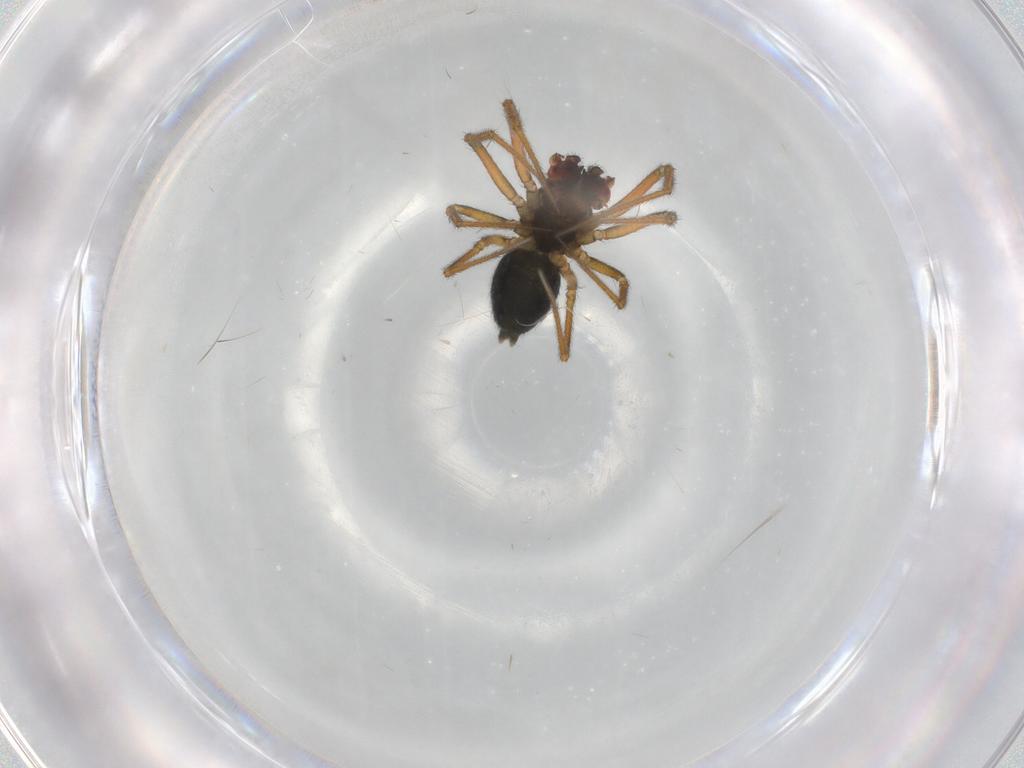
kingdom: Animalia
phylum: Arthropoda
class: Arachnida
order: Araneae
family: Linyphiidae
